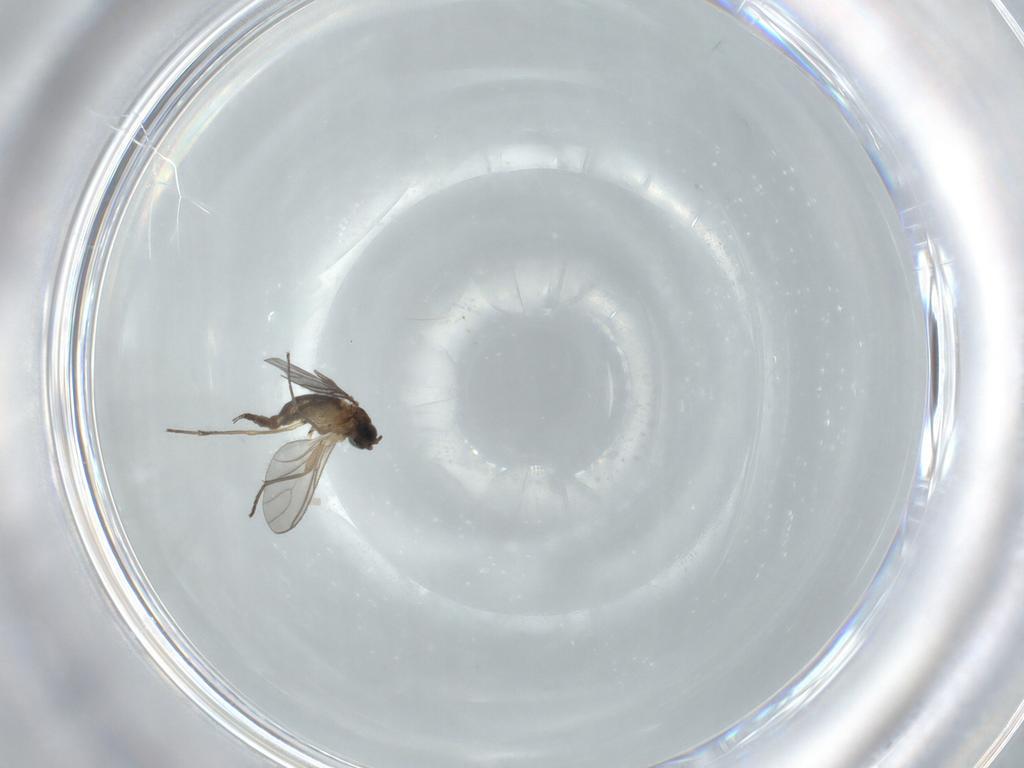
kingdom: Animalia
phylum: Arthropoda
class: Insecta
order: Diptera
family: Sciaridae
